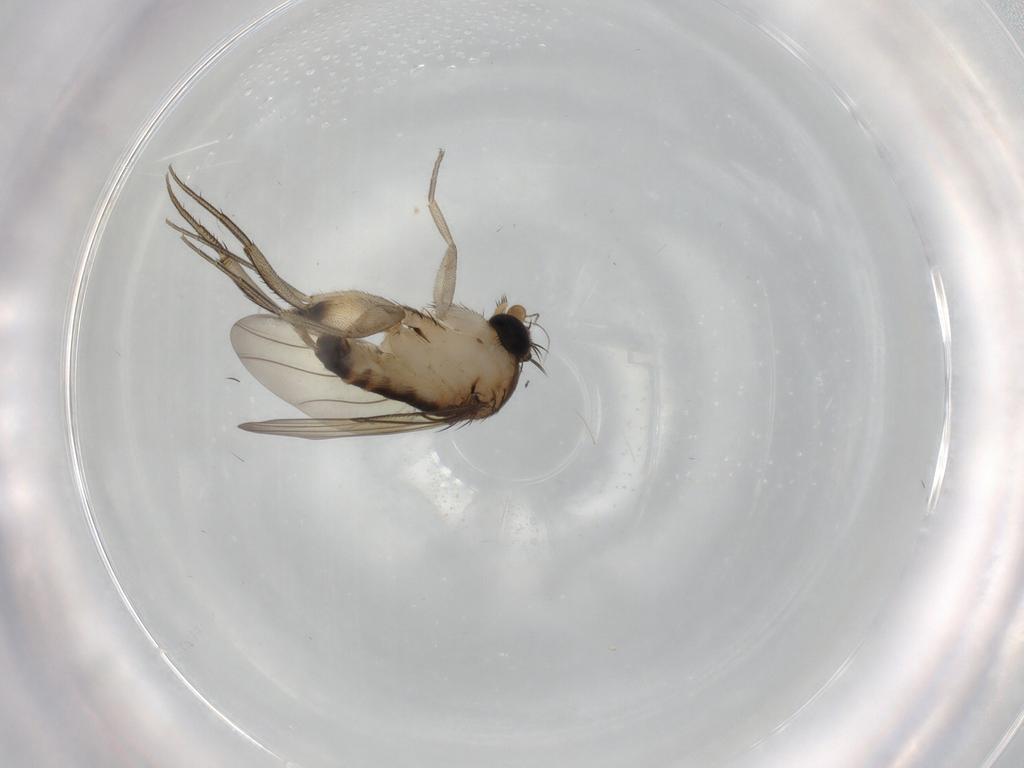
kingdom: Animalia
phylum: Arthropoda
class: Insecta
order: Diptera
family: Phoridae
